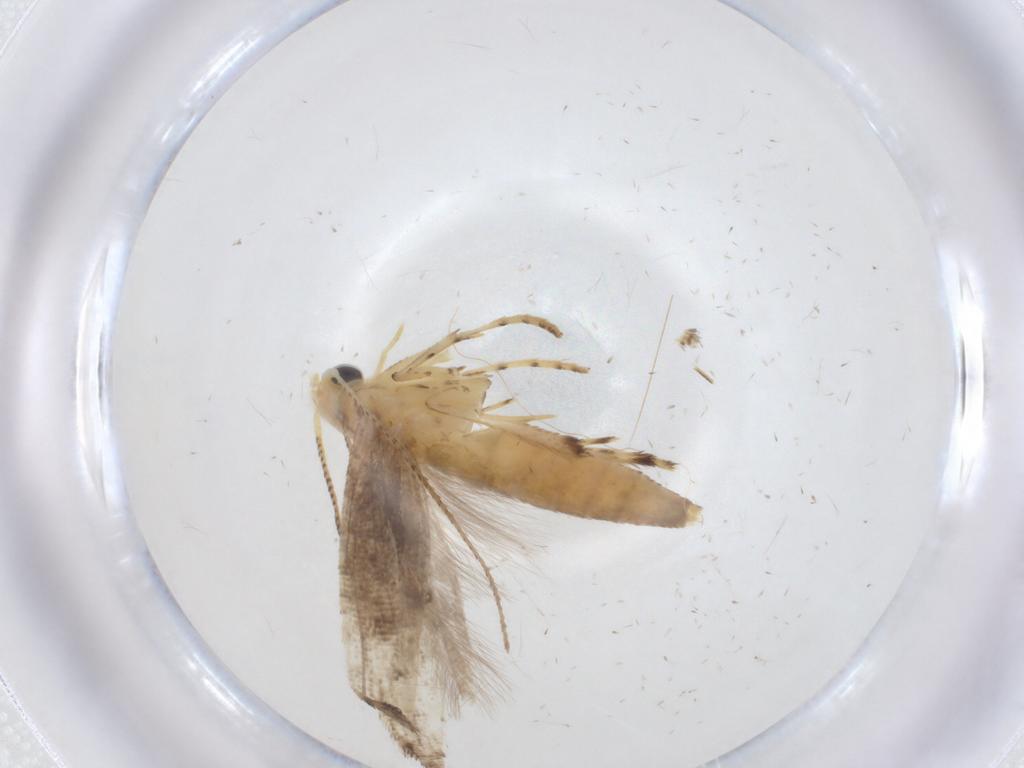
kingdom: Animalia
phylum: Arthropoda
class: Insecta
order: Lepidoptera
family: Argyresthiidae
